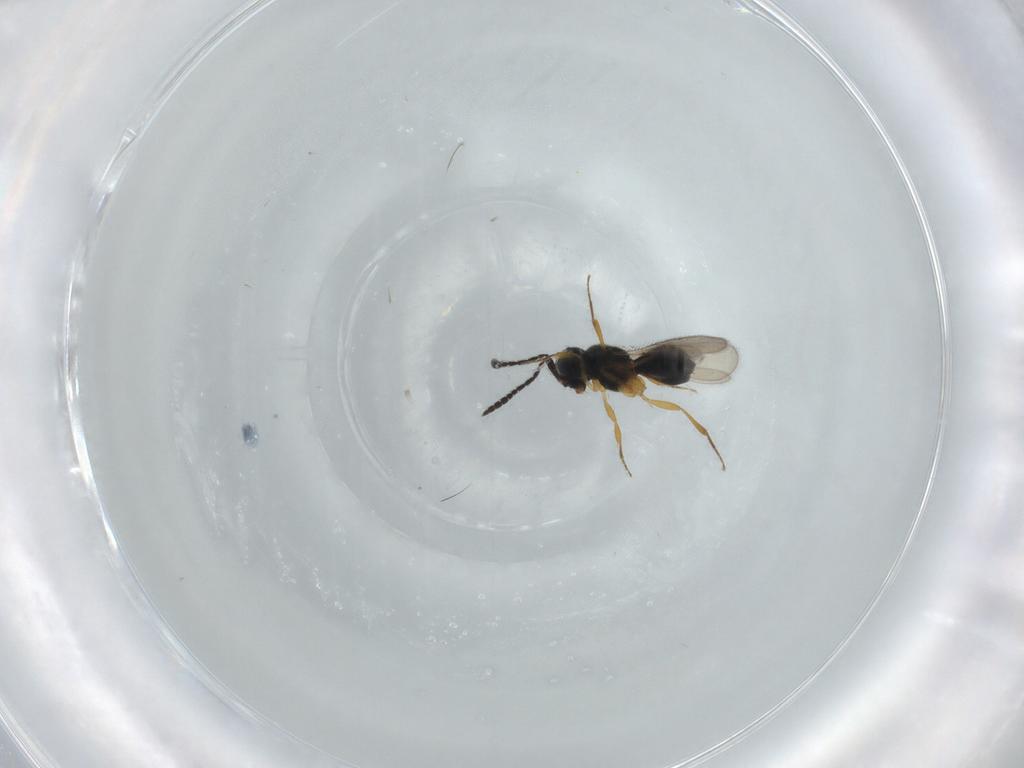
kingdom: Animalia
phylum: Arthropoda
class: Insecta
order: Hymenoptera
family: Scelionidae
